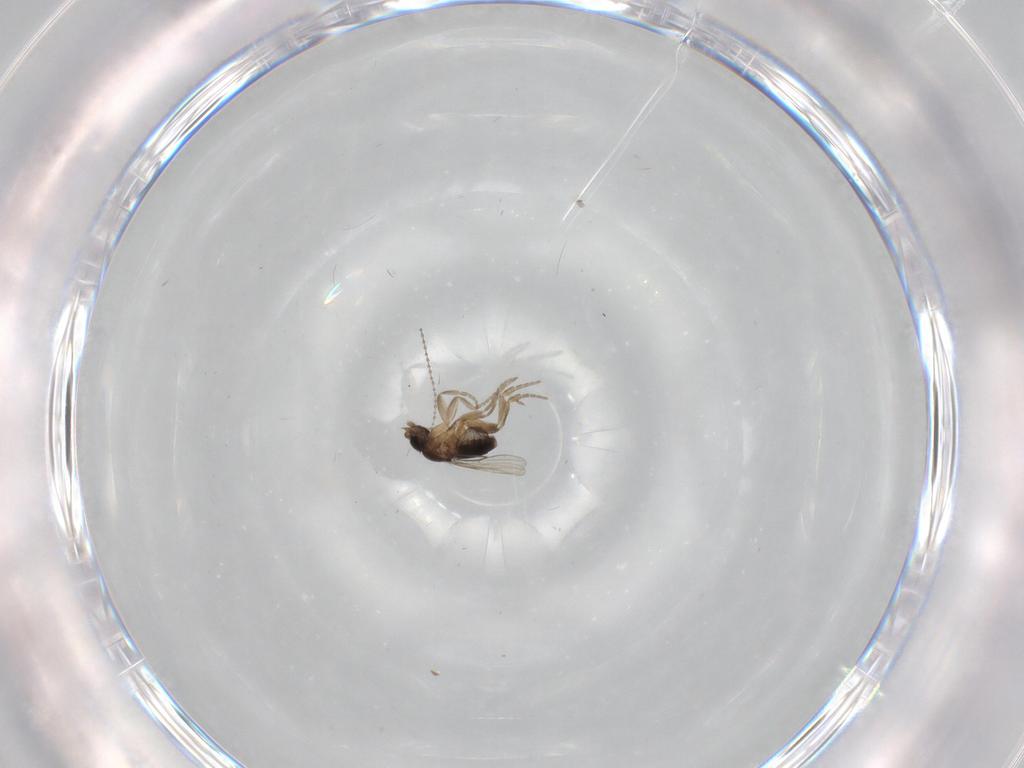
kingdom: Animalia
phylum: Arthropoda
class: Insecta
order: Diptera
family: Phoridae
